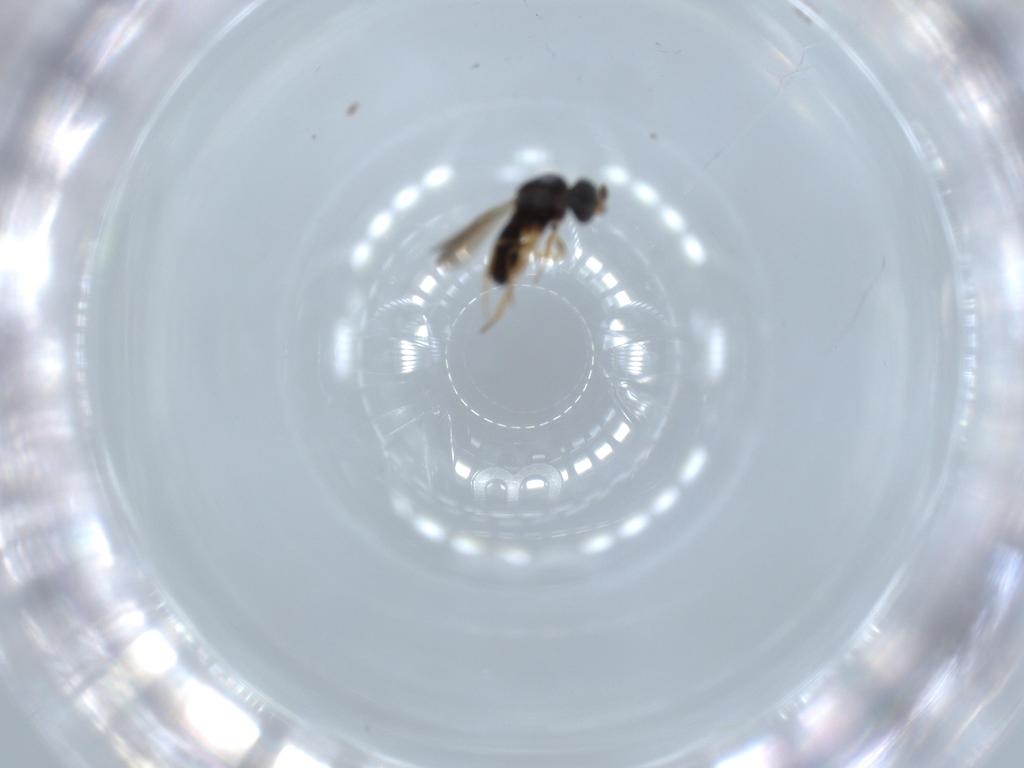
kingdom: Animalia
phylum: Arthropoda
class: Insecta
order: Hymenoptera
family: Scelionidae
